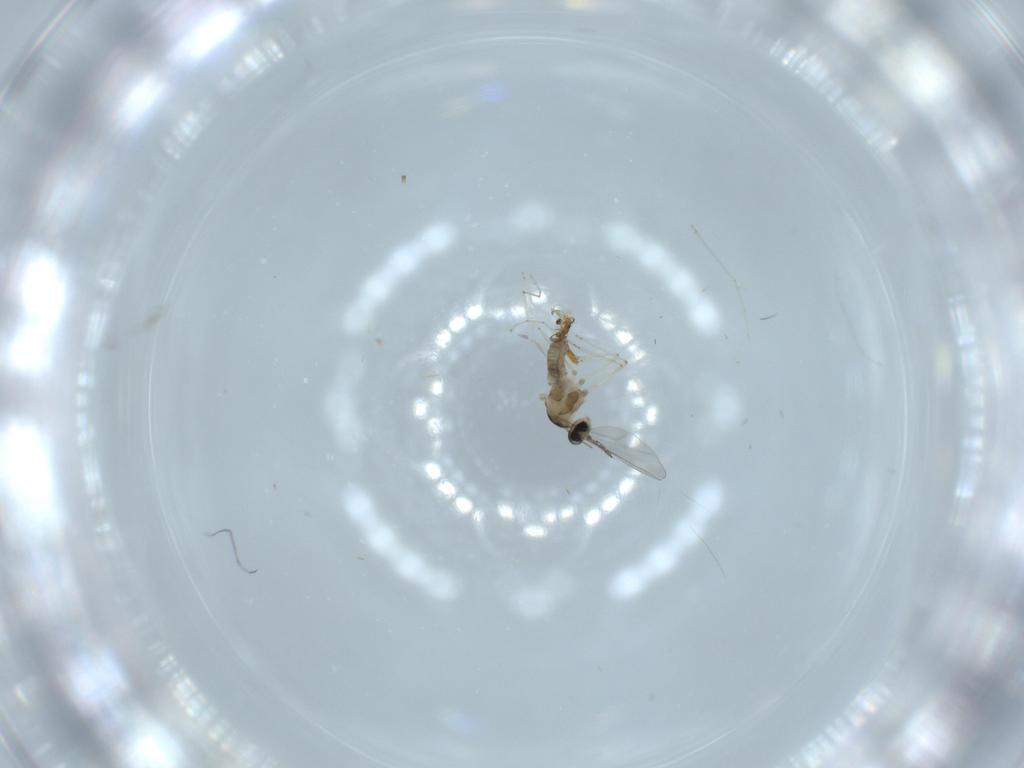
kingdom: Animalia
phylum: Arthropoda
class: Insecta
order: Diptera
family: Cecidomyiidae
